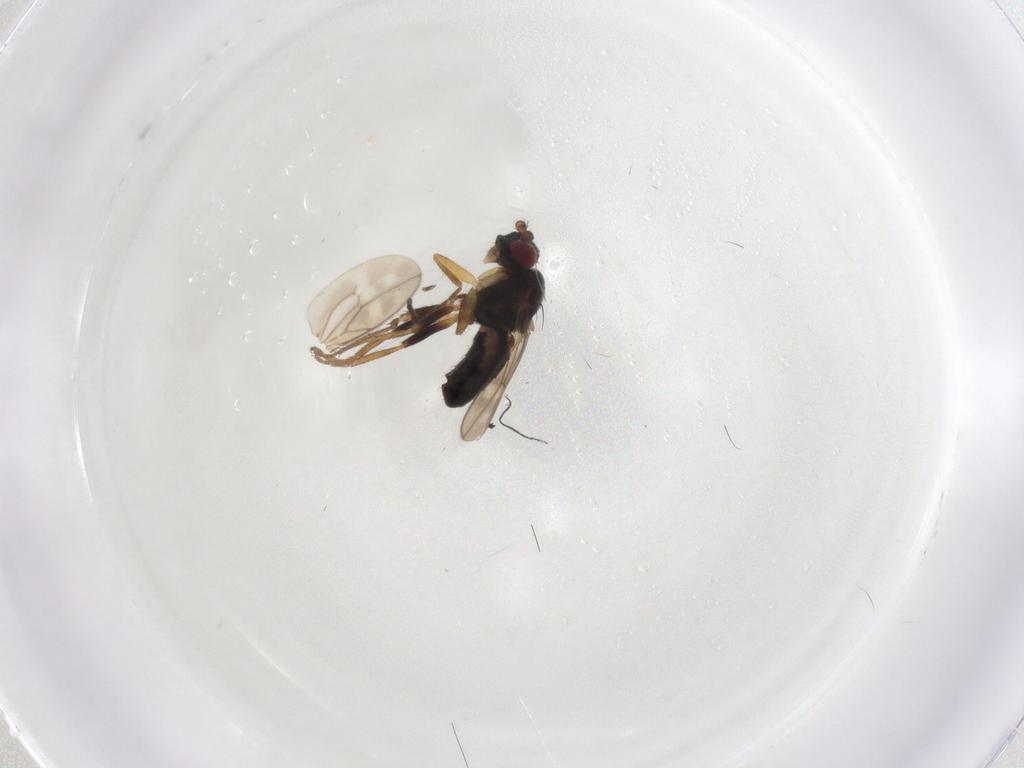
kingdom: Animalia
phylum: Arthropoda
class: Insecta
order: Diptera
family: Sphaeroceridae
